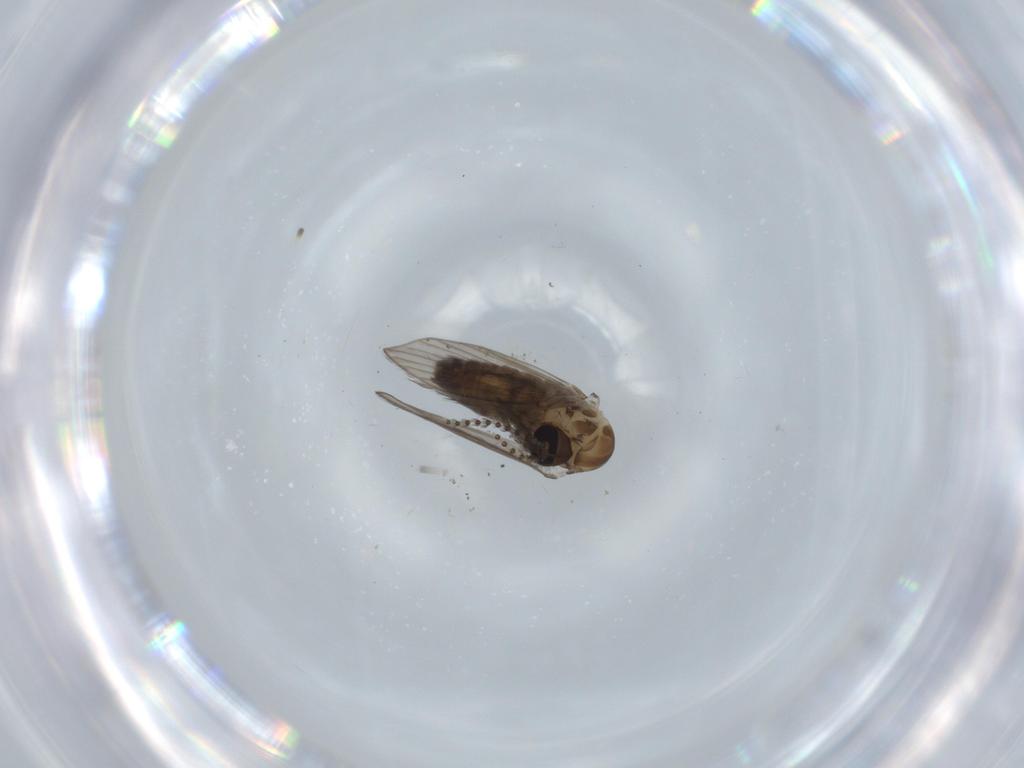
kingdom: Animalia
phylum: Arthropoda
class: Insecta
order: Diptera
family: Psychodidae
